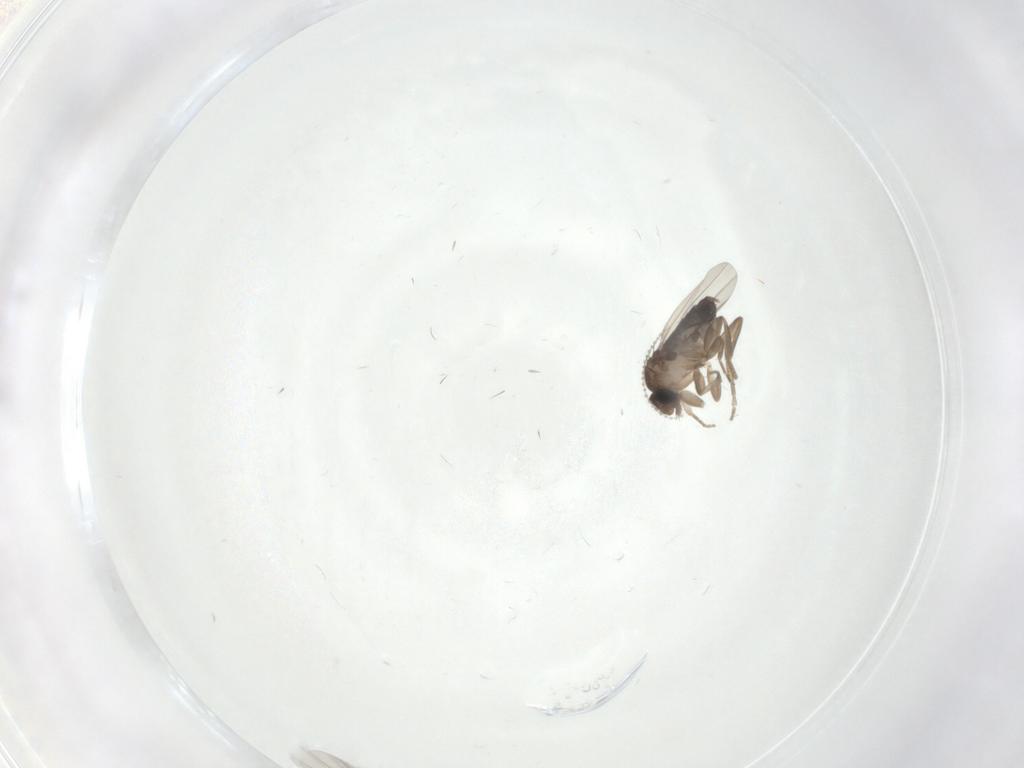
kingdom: Animalia
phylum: Arthropoda
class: Insecta
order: Diptera
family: Phoridae
